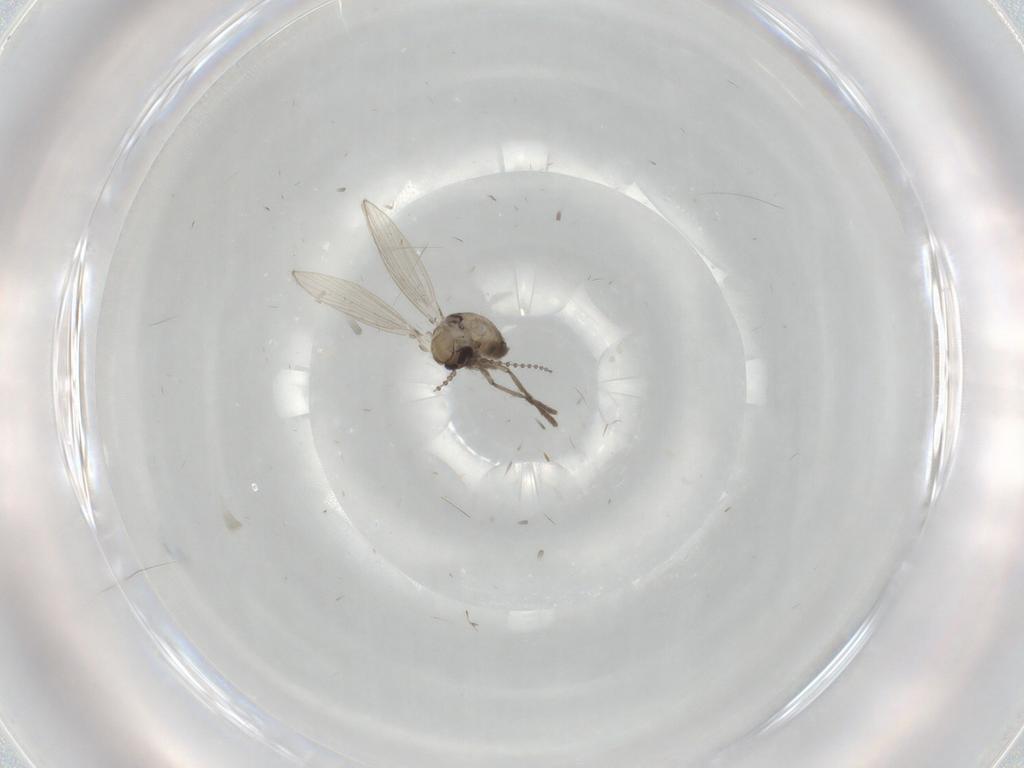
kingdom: Animalia
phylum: Arthropoda
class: Insecta
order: Diptera
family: Psychodidae
